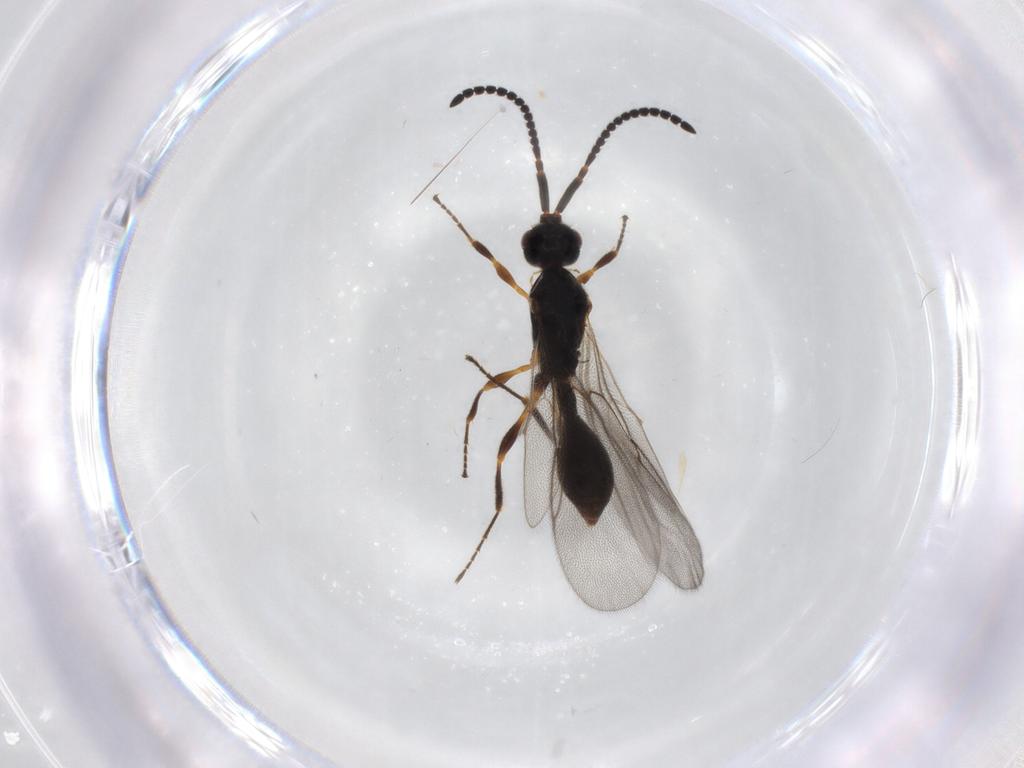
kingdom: Animalia
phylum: Arthropoda
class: Insecta
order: Hymenoptera
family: Diapriidae
